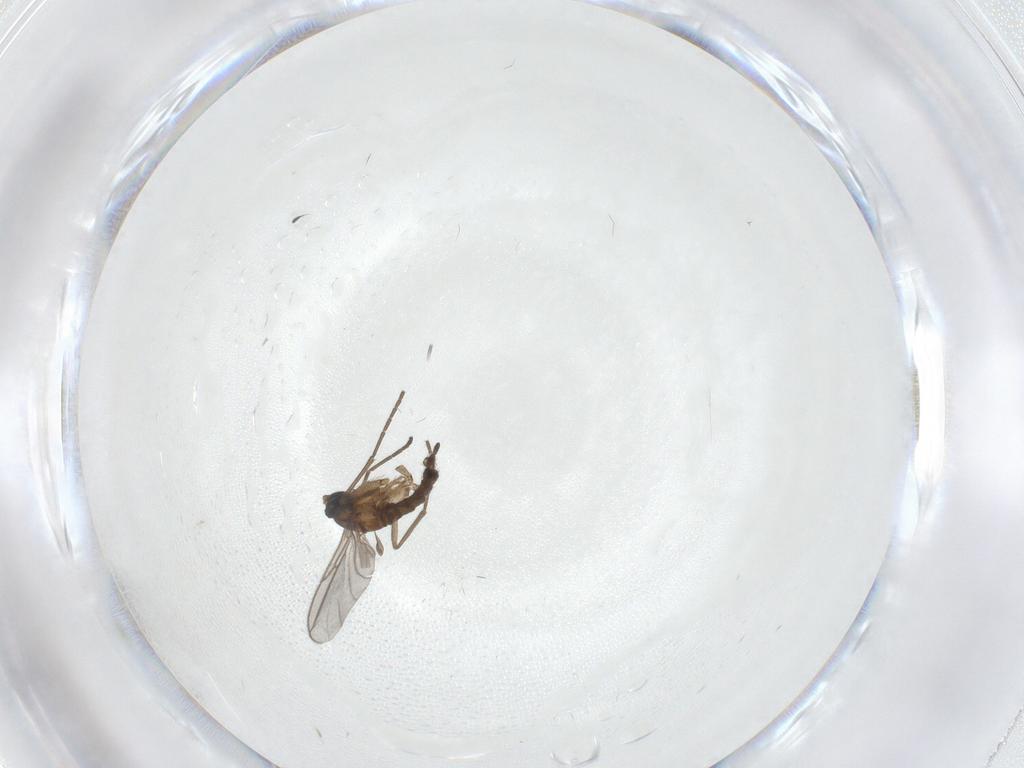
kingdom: Animalia
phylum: Arthropoda
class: Insecta
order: Diptera
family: Sciaridae
